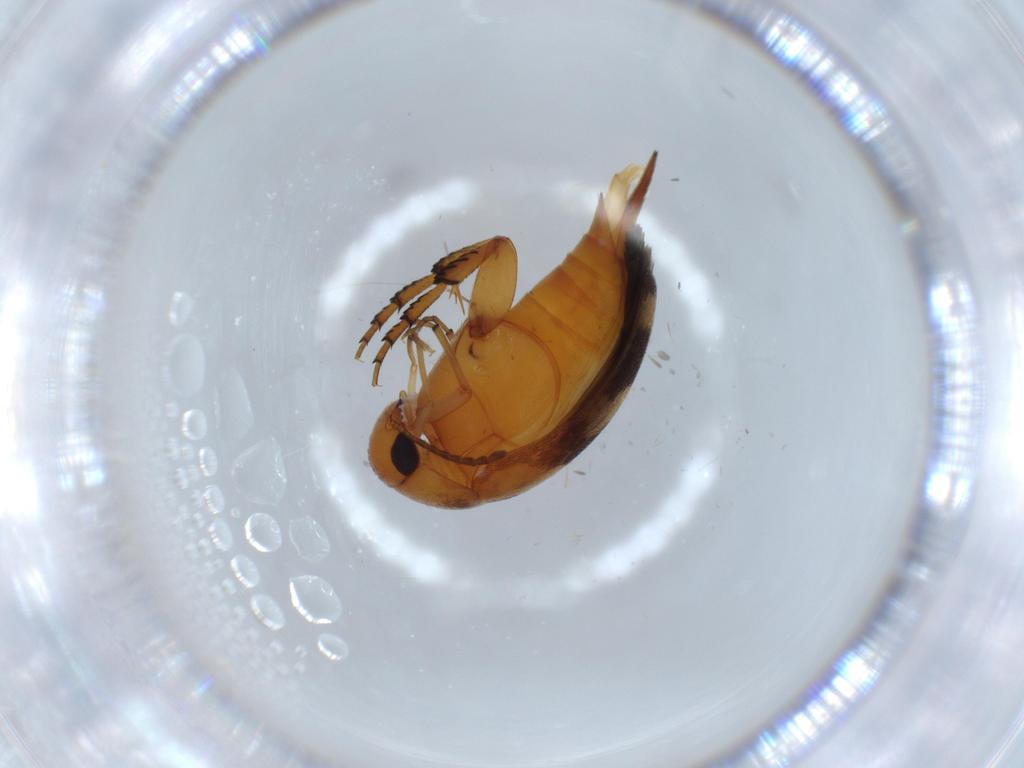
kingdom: Animalia
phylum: Arthropoda
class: Insecta
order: Coleoptera
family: Mordellidae
